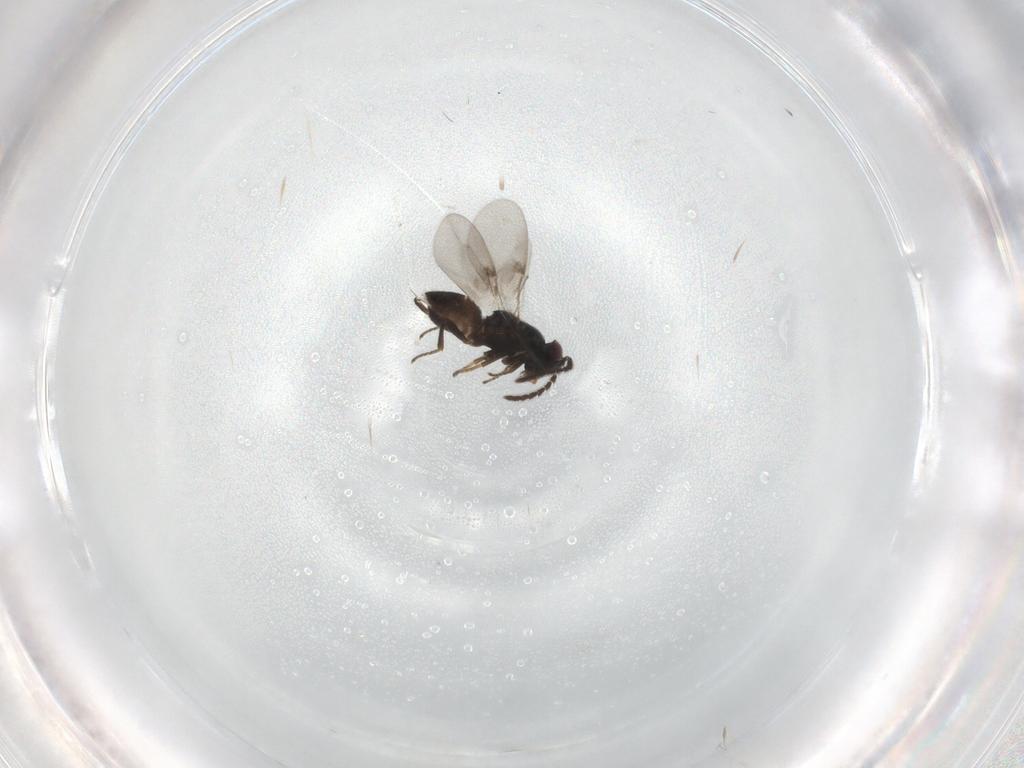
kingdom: Animalia
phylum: Arthropoda
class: Insecta
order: Hymenoptera
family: Encyrtidae
